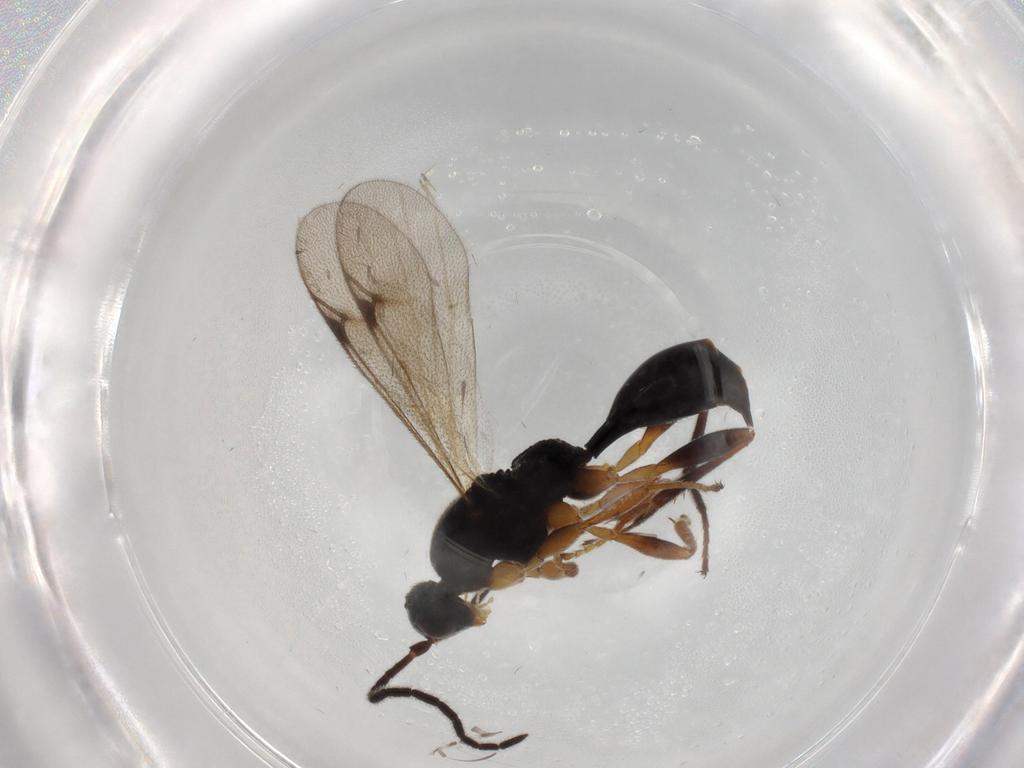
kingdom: Animalia
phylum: Arthropoda
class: Insecta
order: Hymenoptera
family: Proctotrupidae
